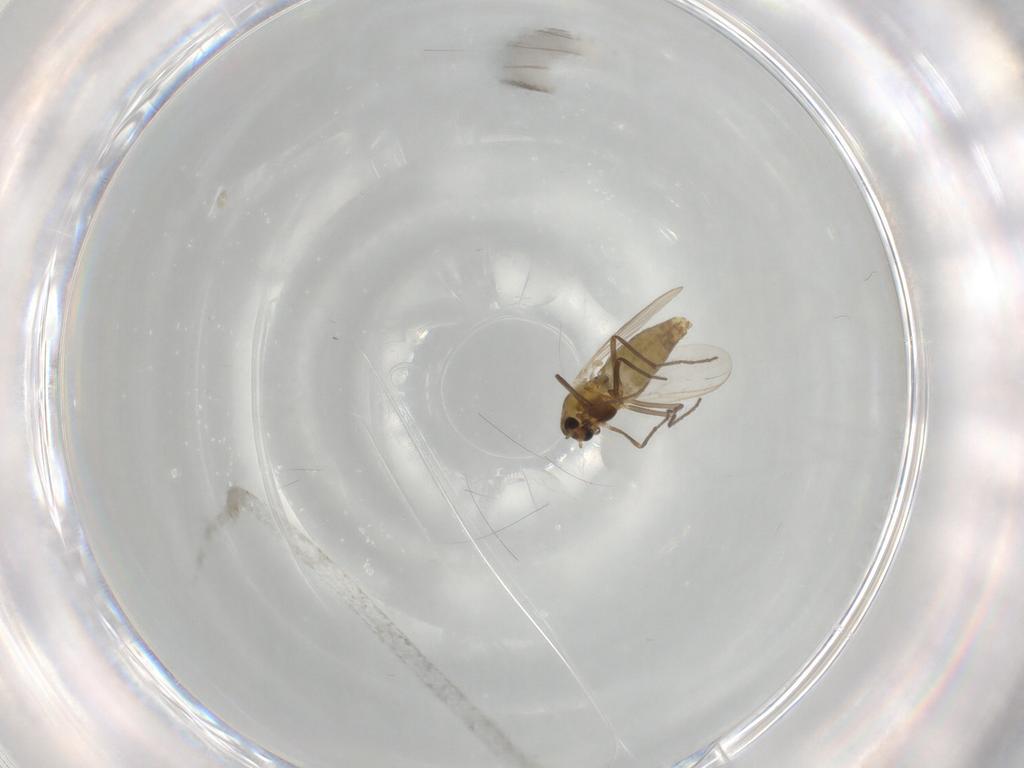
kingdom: Animalia
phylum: Arthropoda
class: Insecta
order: Diptera
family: Chironomidae
